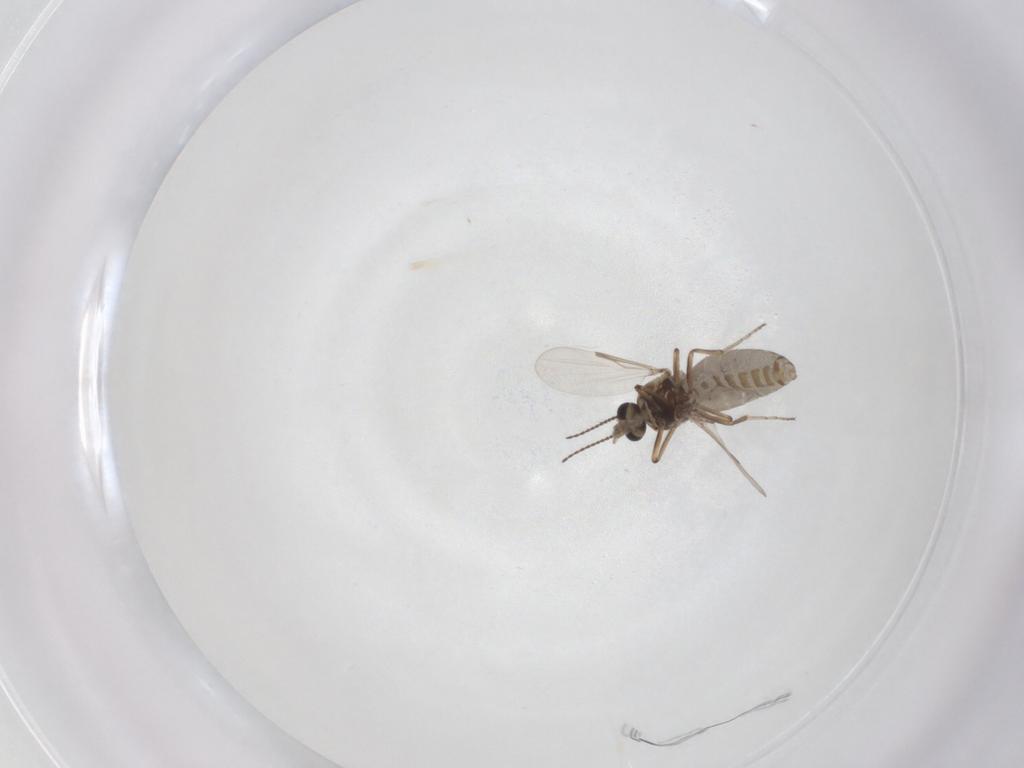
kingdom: Animalia
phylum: Arthropoda
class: Insecta
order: Diptera
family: Ceratopogonidae
